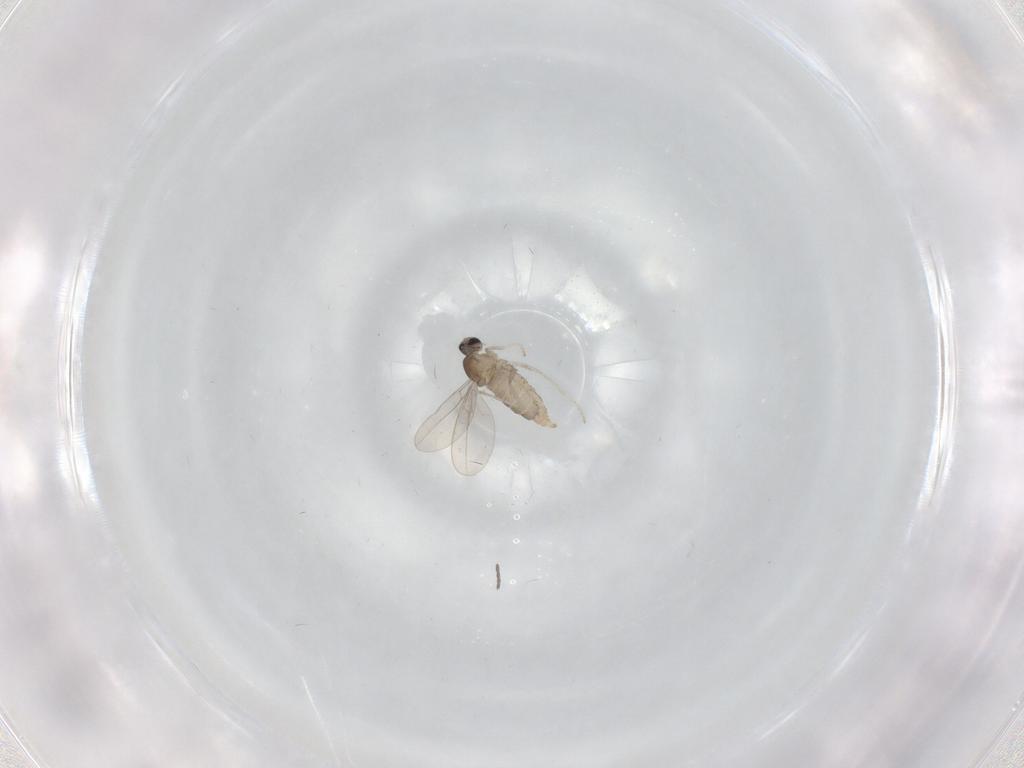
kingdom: Animalia
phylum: Arthropoda
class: Insecta
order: Diptera
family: Cecidomyiidae
